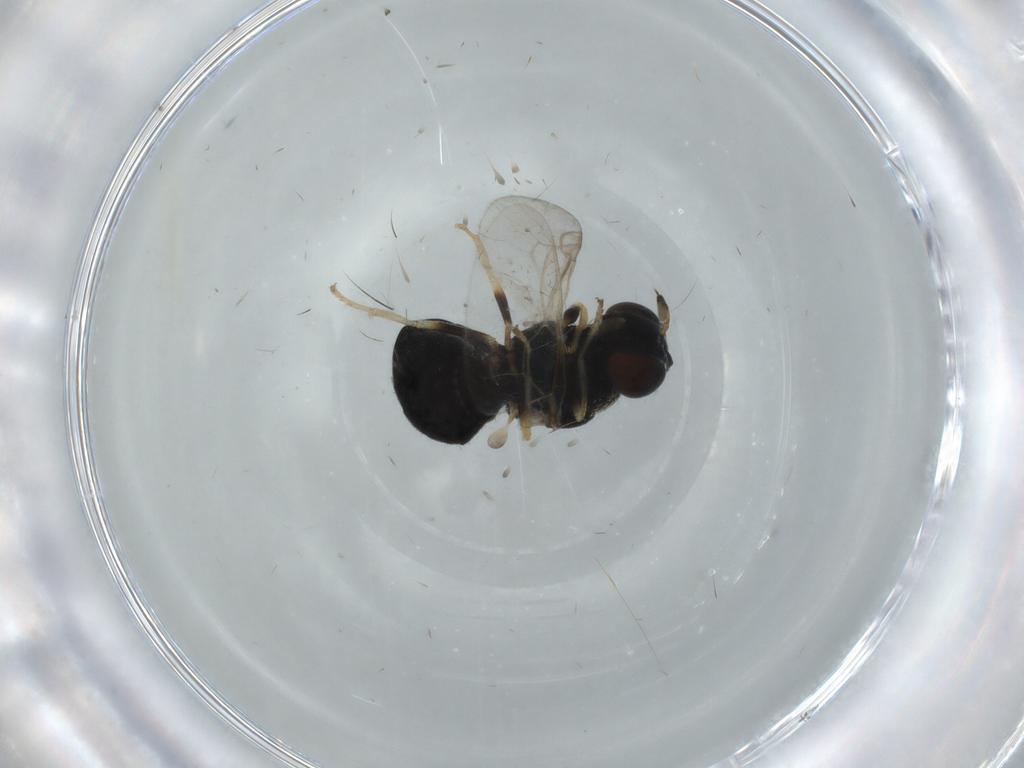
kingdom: Animalia
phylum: Arthropoda
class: Insecta
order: Diptera
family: Stratiomyidae
